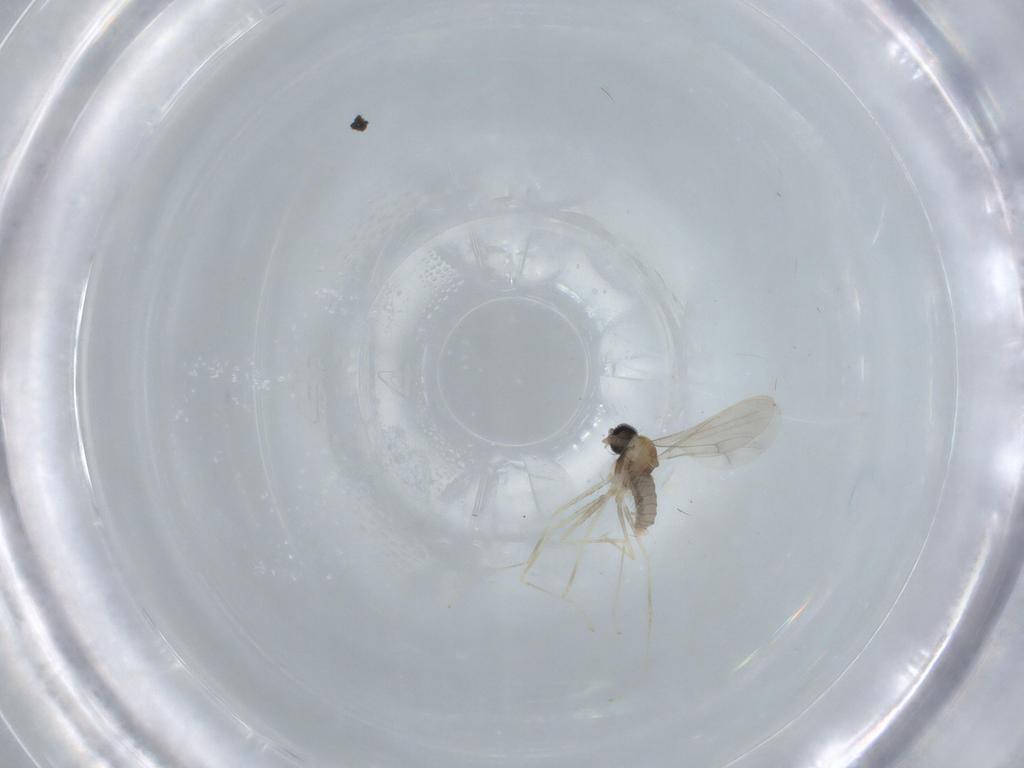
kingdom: Animalia
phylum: Arthropoda
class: Insecta
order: Diptera
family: Cecidomyiidae
